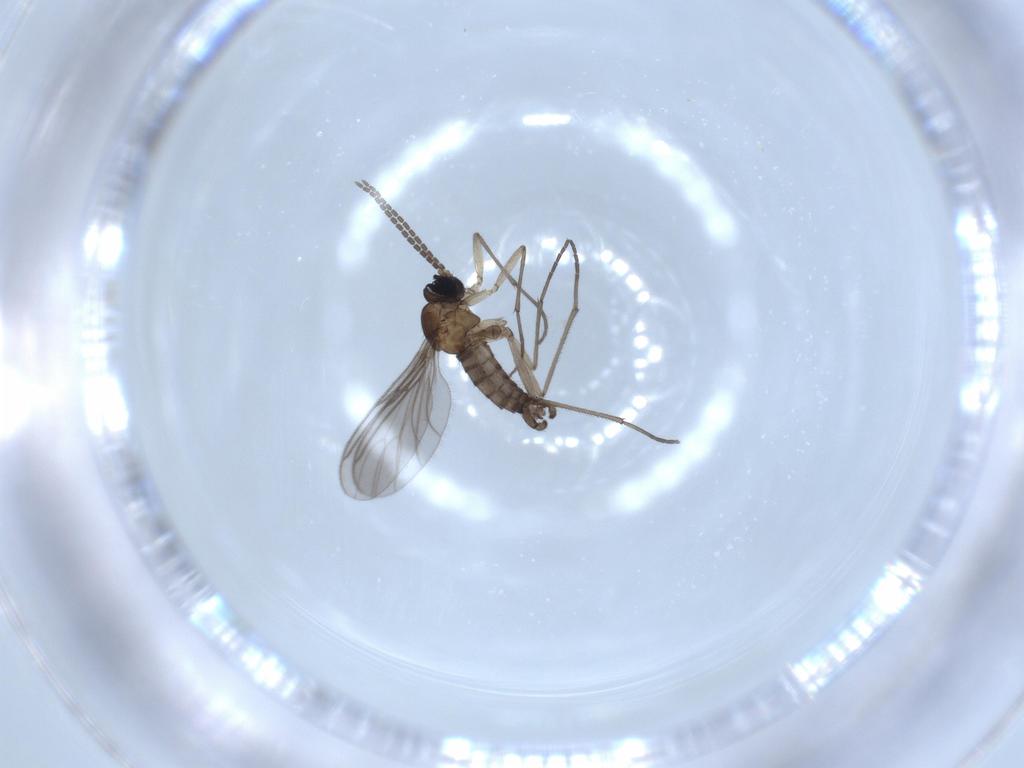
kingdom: Animalia
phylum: Arthropoda
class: Insecta
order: Diptera
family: Sciaridae
